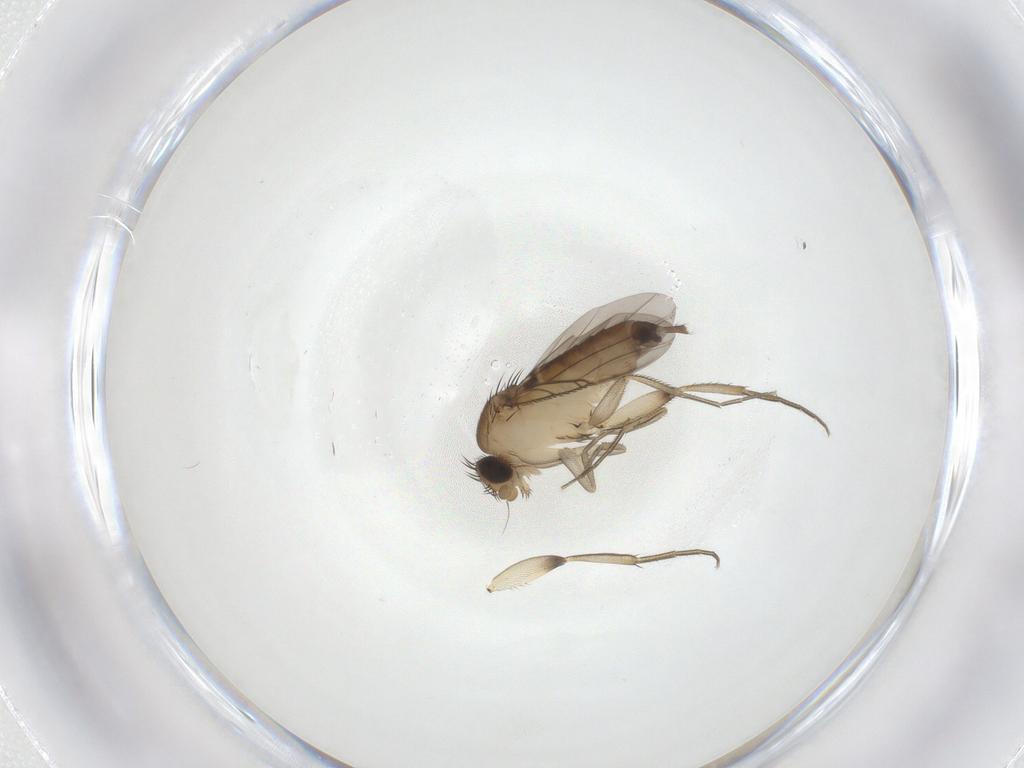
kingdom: Animalia
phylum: Arthropoda
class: Insecta
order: Diptera
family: Phoridae
